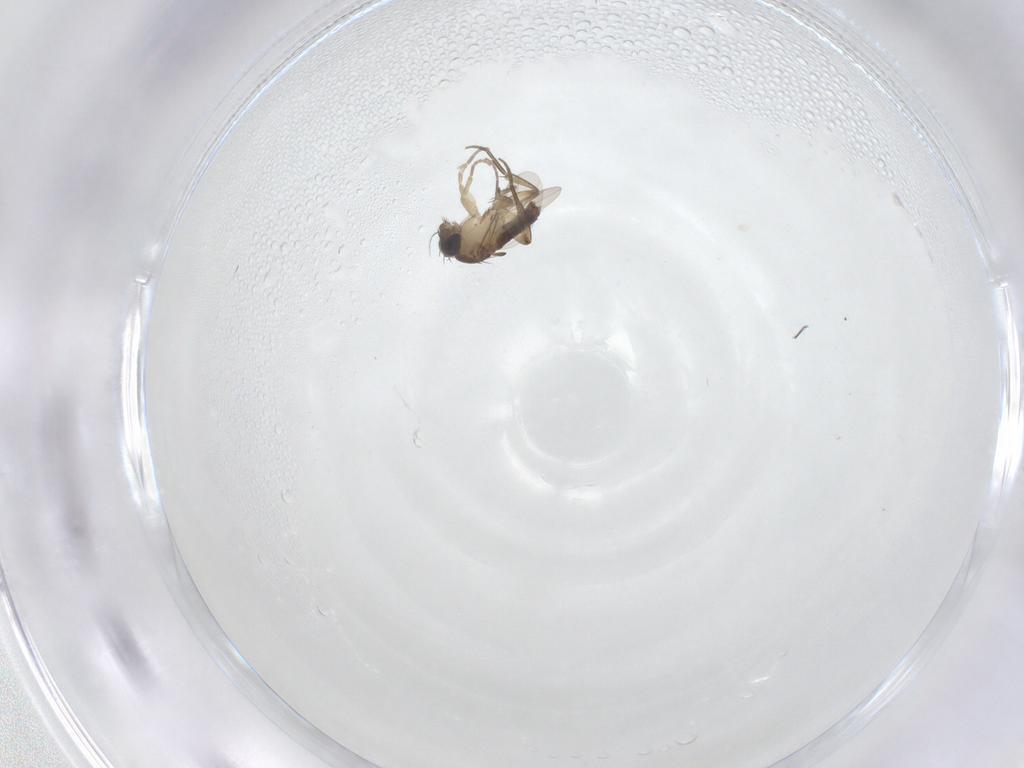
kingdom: Animalia
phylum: Arthropoda
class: Insecta
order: Diptera
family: Phoridae
